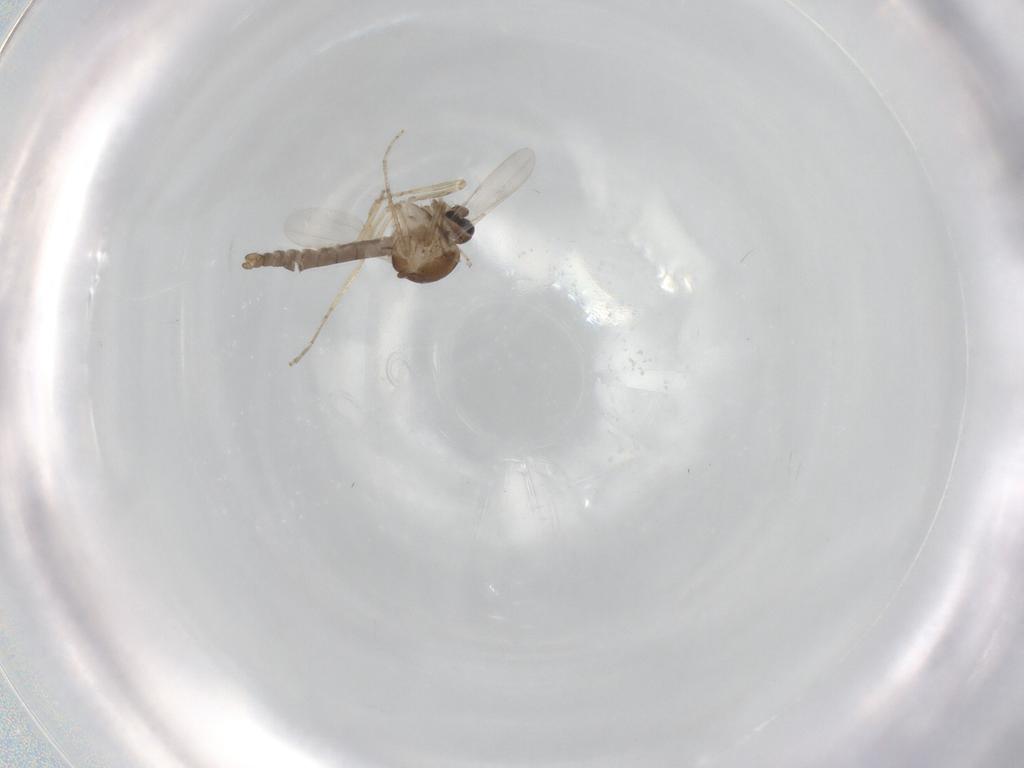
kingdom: Animalia
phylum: Arthropoda
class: Insecta
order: Diptera
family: Ceratopogonidae
